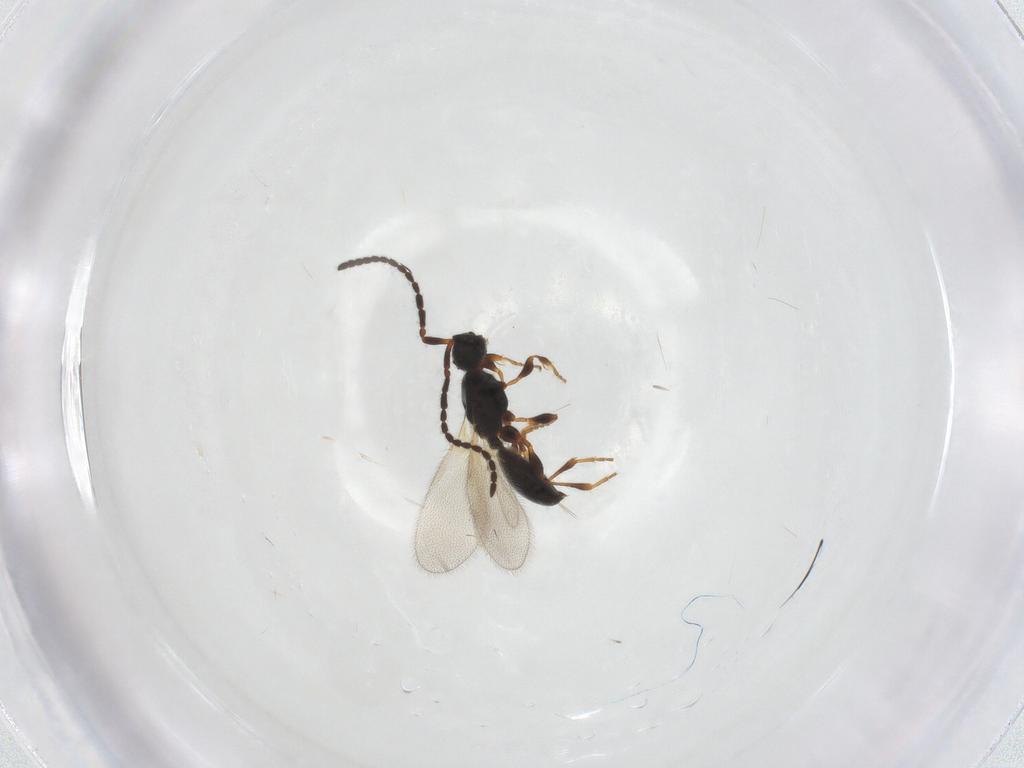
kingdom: Animalia
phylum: Arthropoda
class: Insecta
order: Hymenoptera
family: Diapriidae
